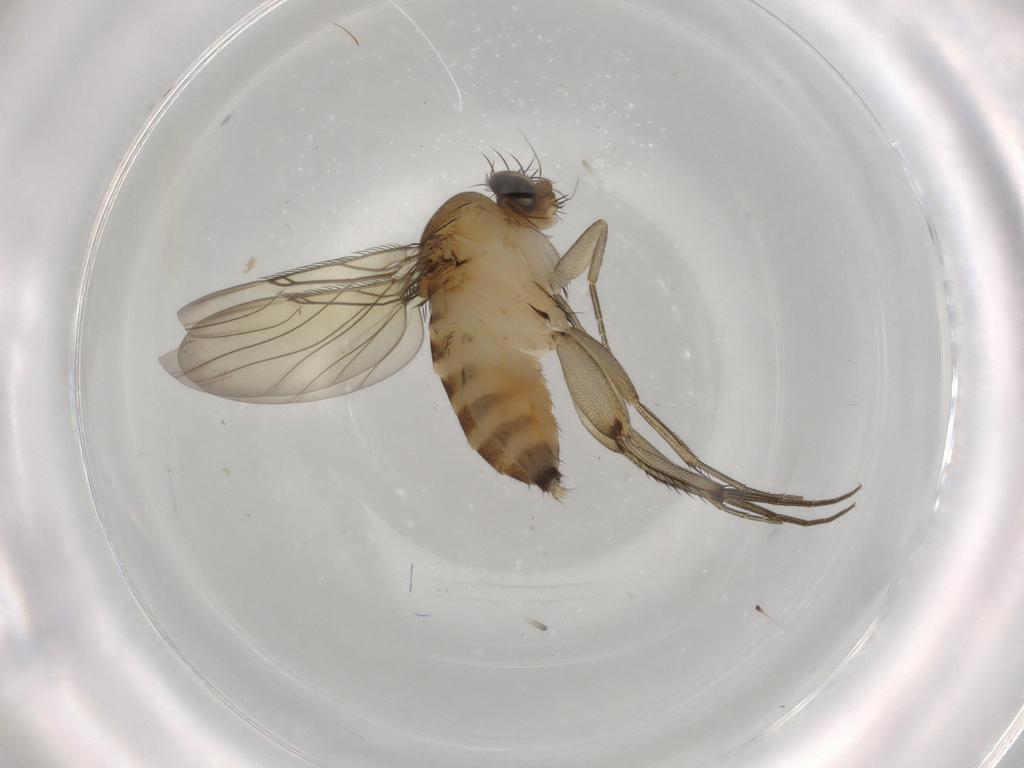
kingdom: Animalia
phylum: Arthropoda
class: Insecta
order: Diptera
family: Phoridae
